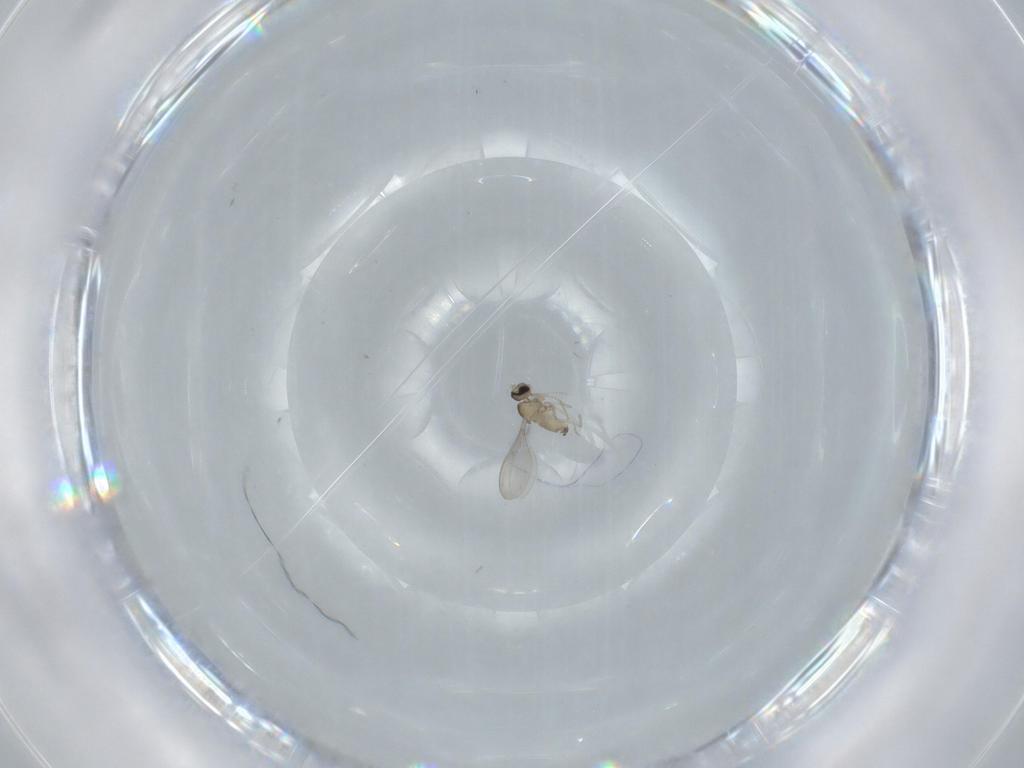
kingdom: Animalia
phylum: Arthropoda
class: Insecta
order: Diptera
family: Cecidomyiidae
